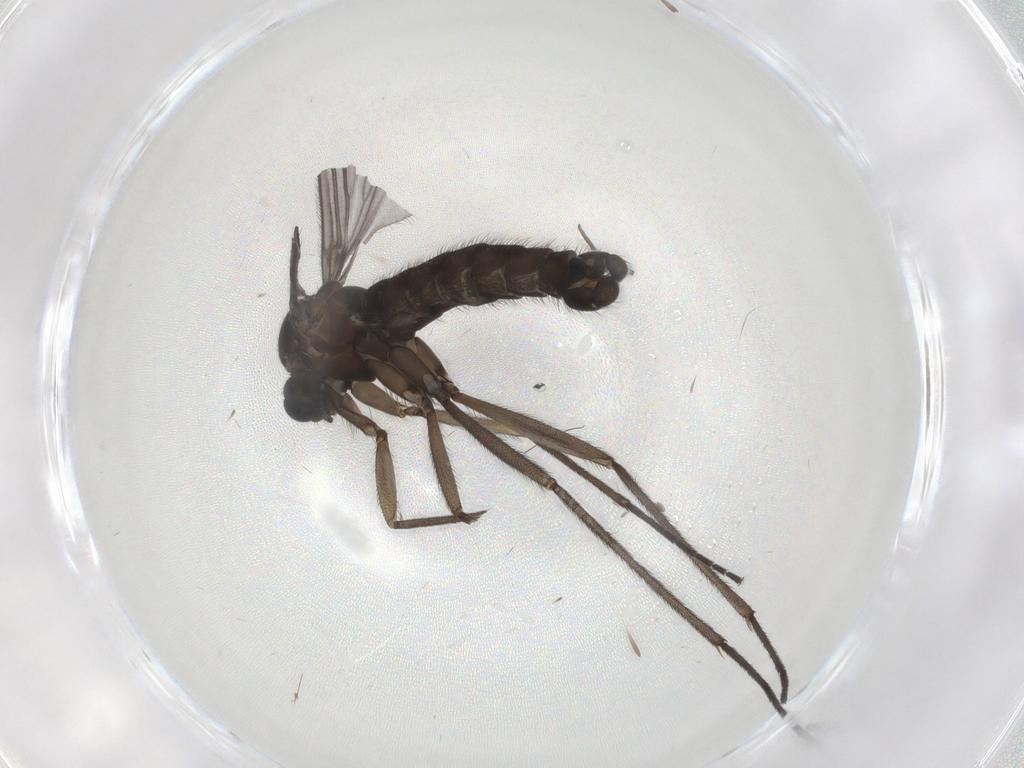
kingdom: Animalia
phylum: Arthropoda
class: Insecta
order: Diptera
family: Sciaridae
